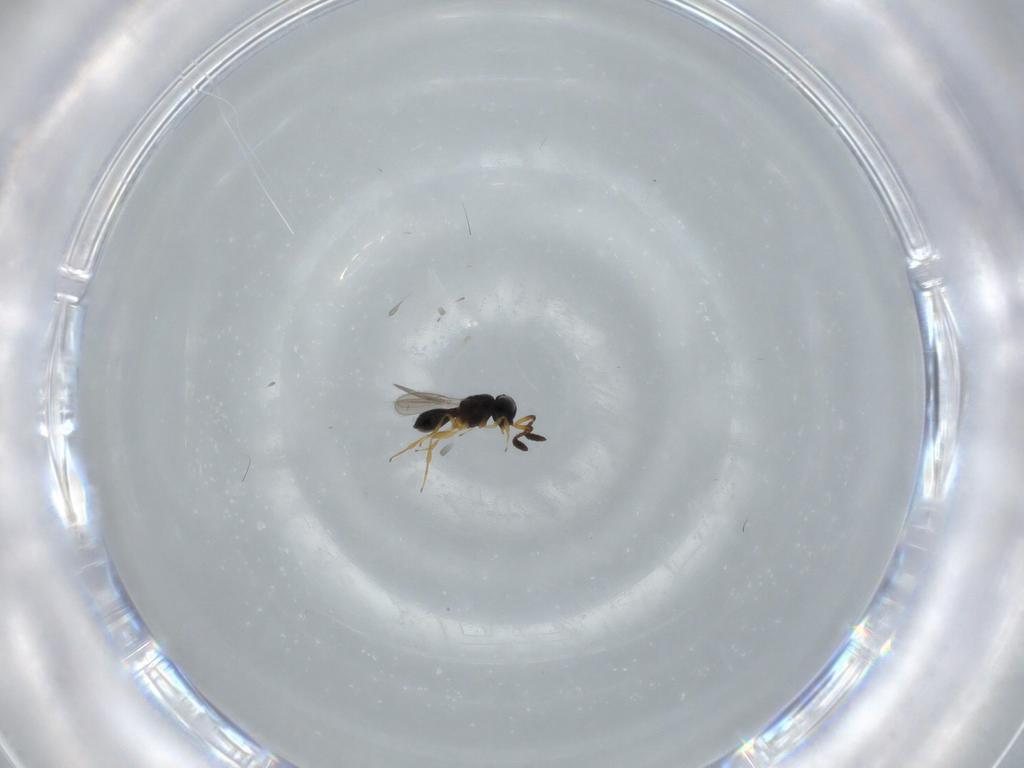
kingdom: Animalia
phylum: Arthropoda
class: Insecta
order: Hymenoptera
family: Scelionidae
